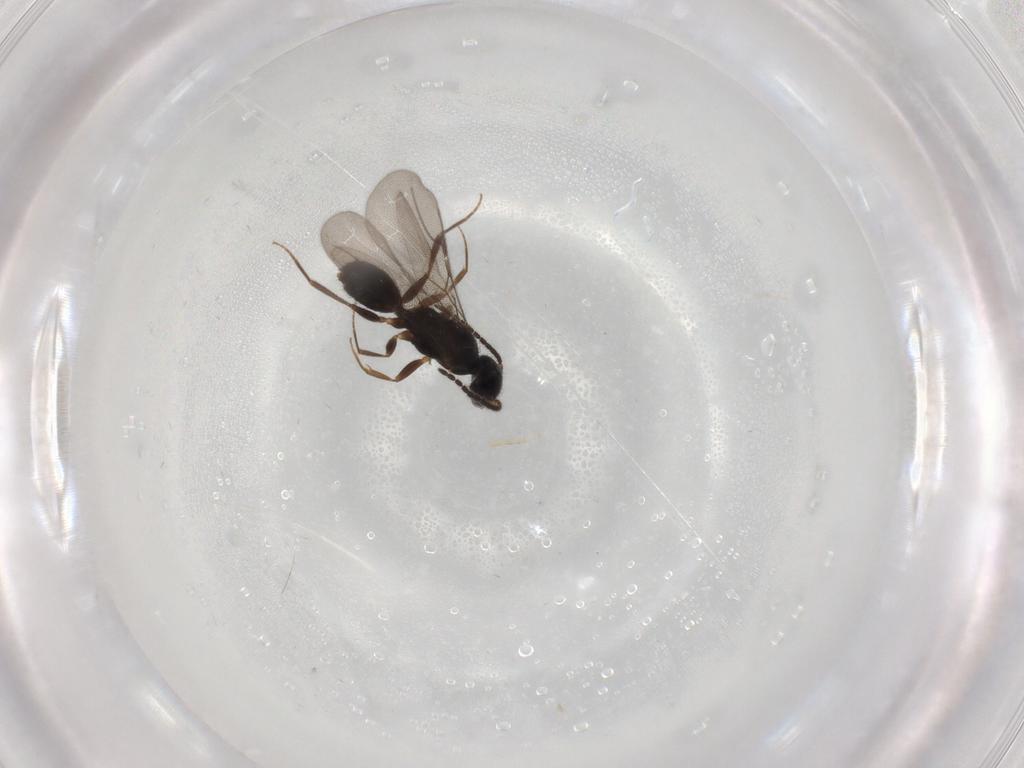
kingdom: Animalia
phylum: Arthropoda
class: Insecta
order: Hymenoptera
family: Bethylidae
